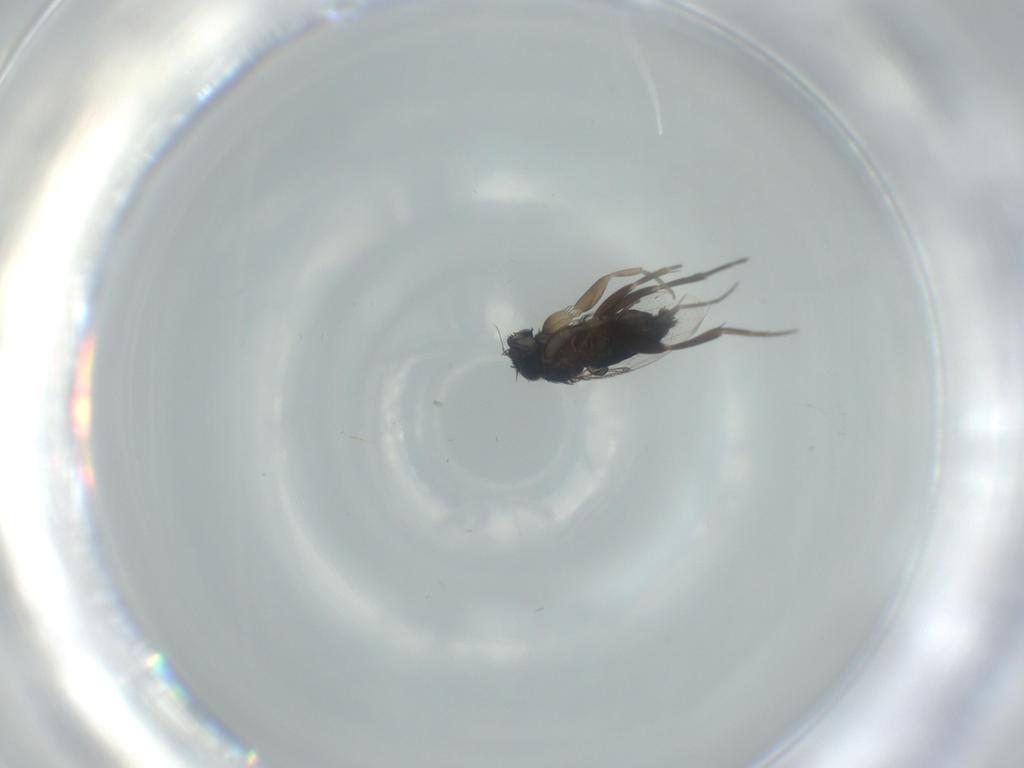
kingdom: Animalia
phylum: Arthropoda
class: Insecta
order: Diptera
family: Phoridae
